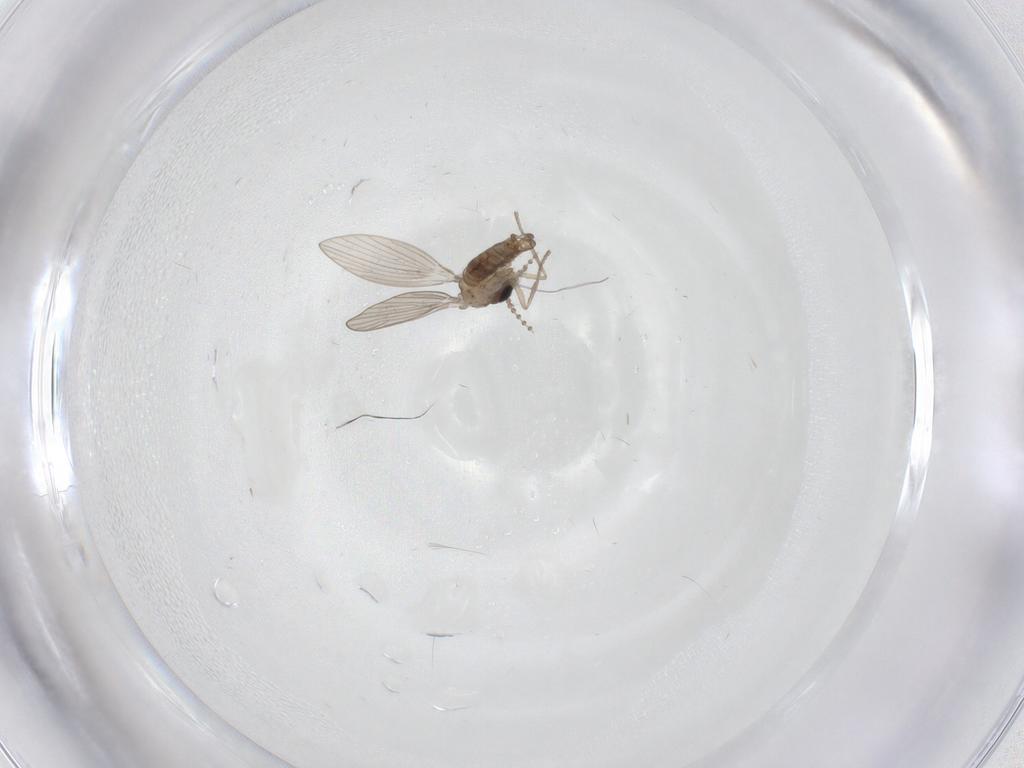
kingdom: Animalia
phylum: Arthropoda
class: Insecta
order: Diptera
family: Psychodidae
